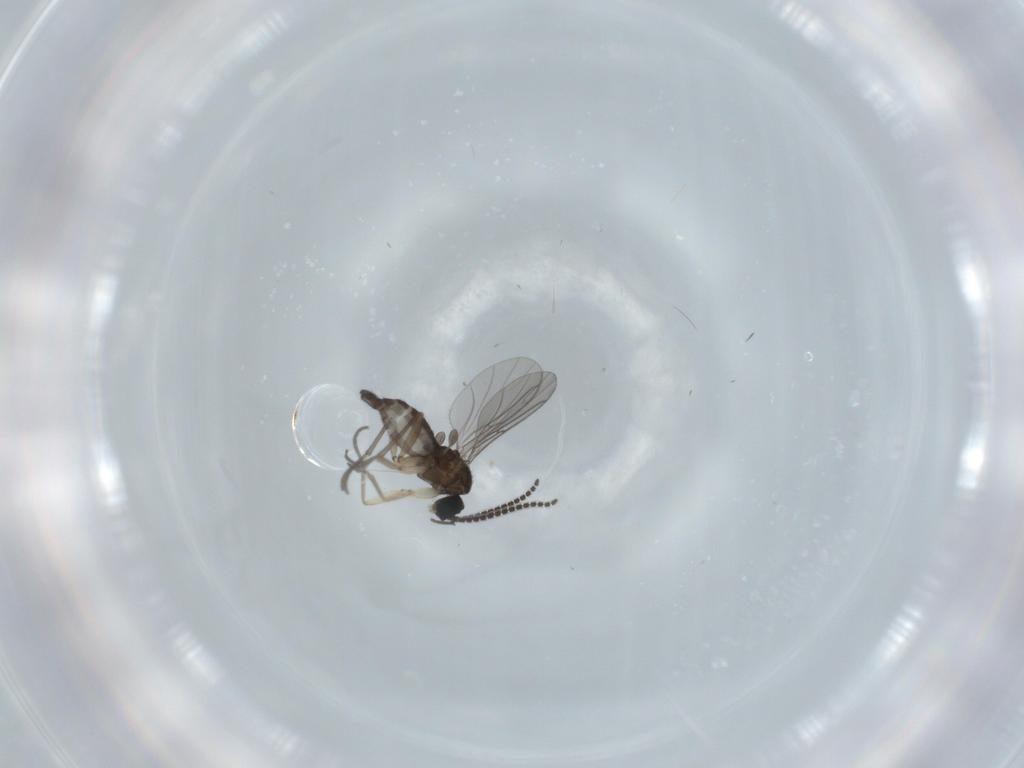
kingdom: Animalia
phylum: Arthropoda
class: Insecta
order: Diptera
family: Sciaridae
